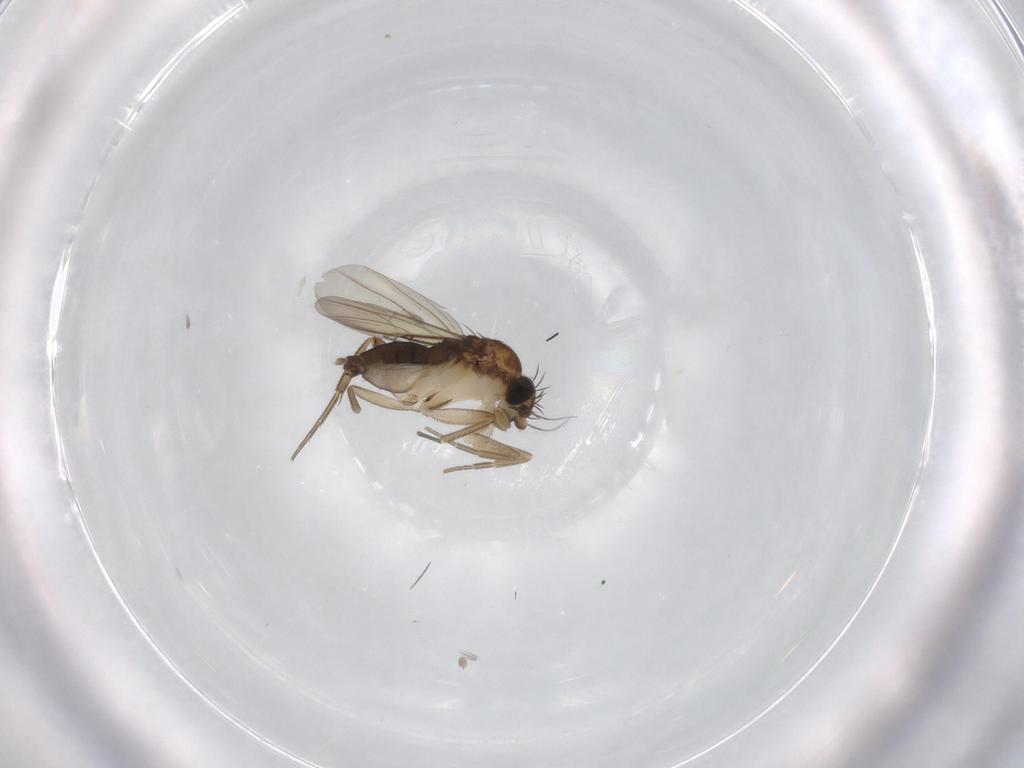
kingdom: Animalia
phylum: Arthropoda
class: Insecta
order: Diptera
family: Phoridae
